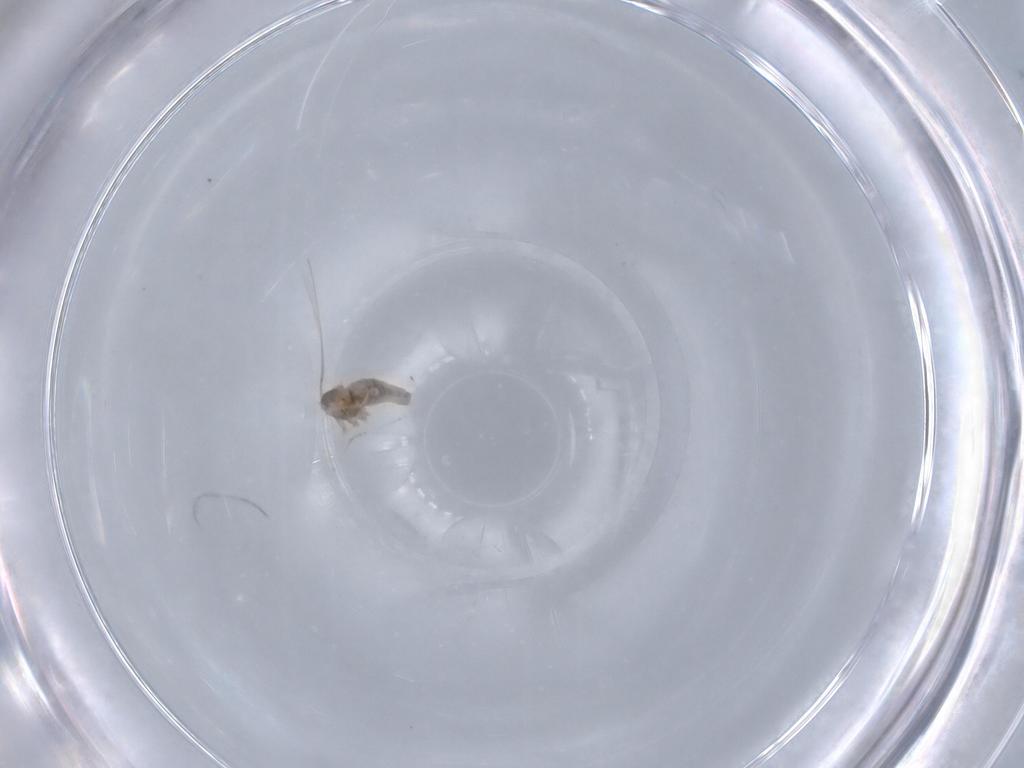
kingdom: Animalia
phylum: Arthropoda
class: Insecta
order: Diptera
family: Cecidomyiidae
